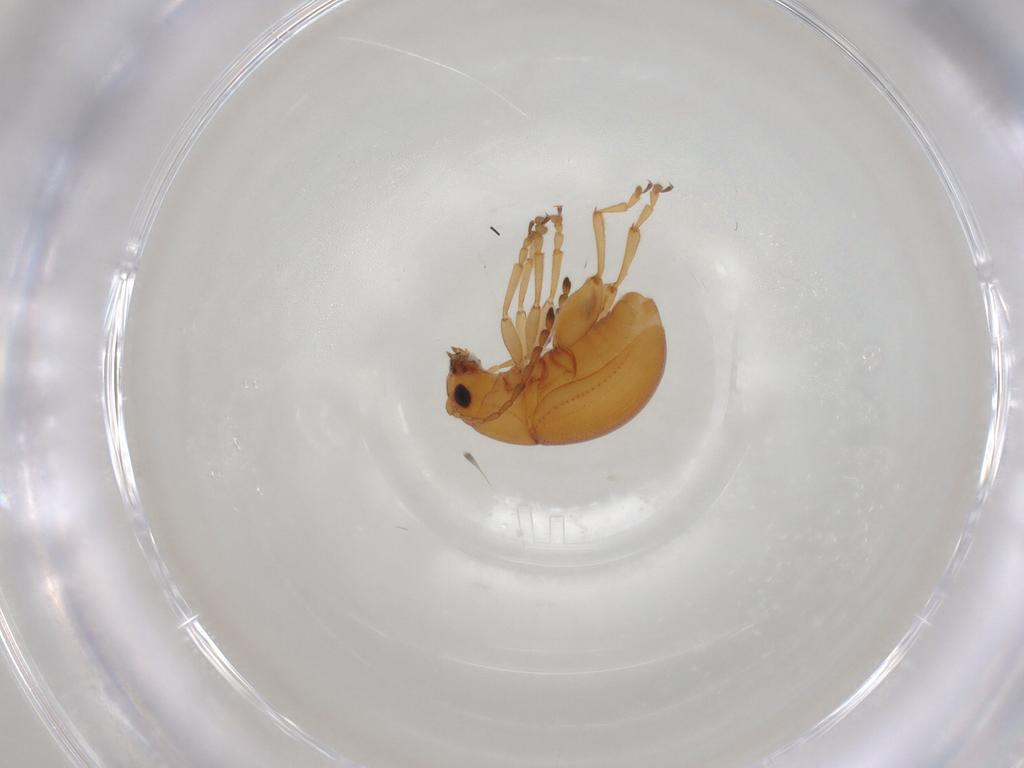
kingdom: Animalia
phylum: Arthropoda
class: Insecta
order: Coleoptera
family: Chrysomelidae
